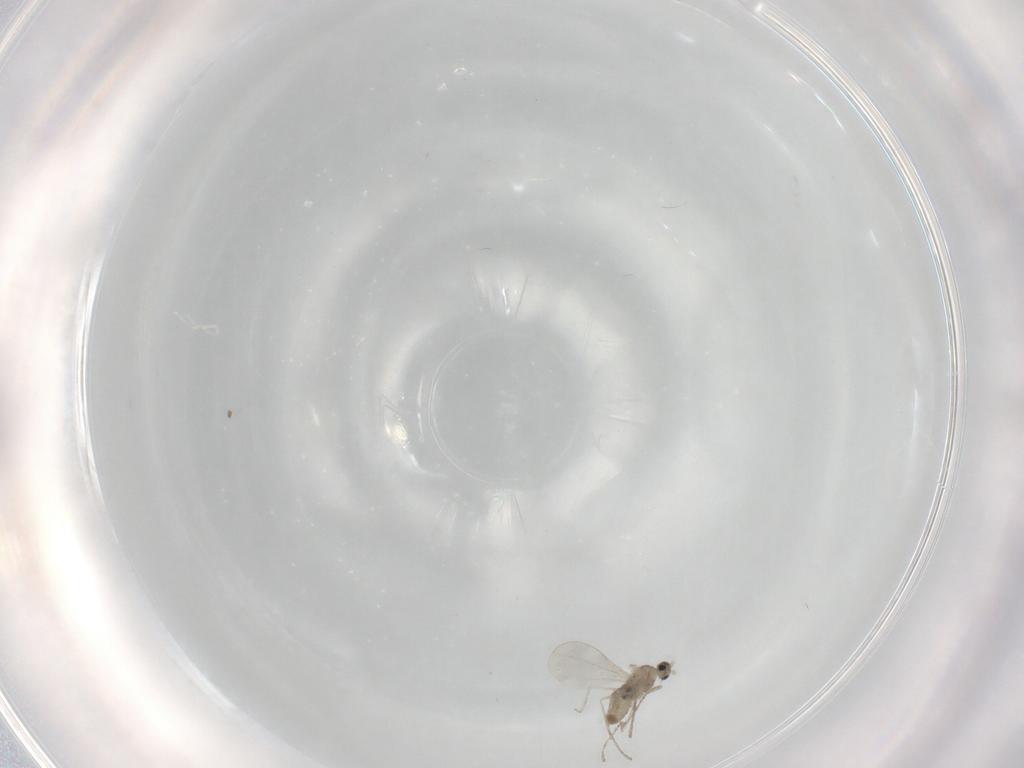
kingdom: Animalia
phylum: Arthropoda
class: Insecta
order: Diptera
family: Cecidomyiidae
